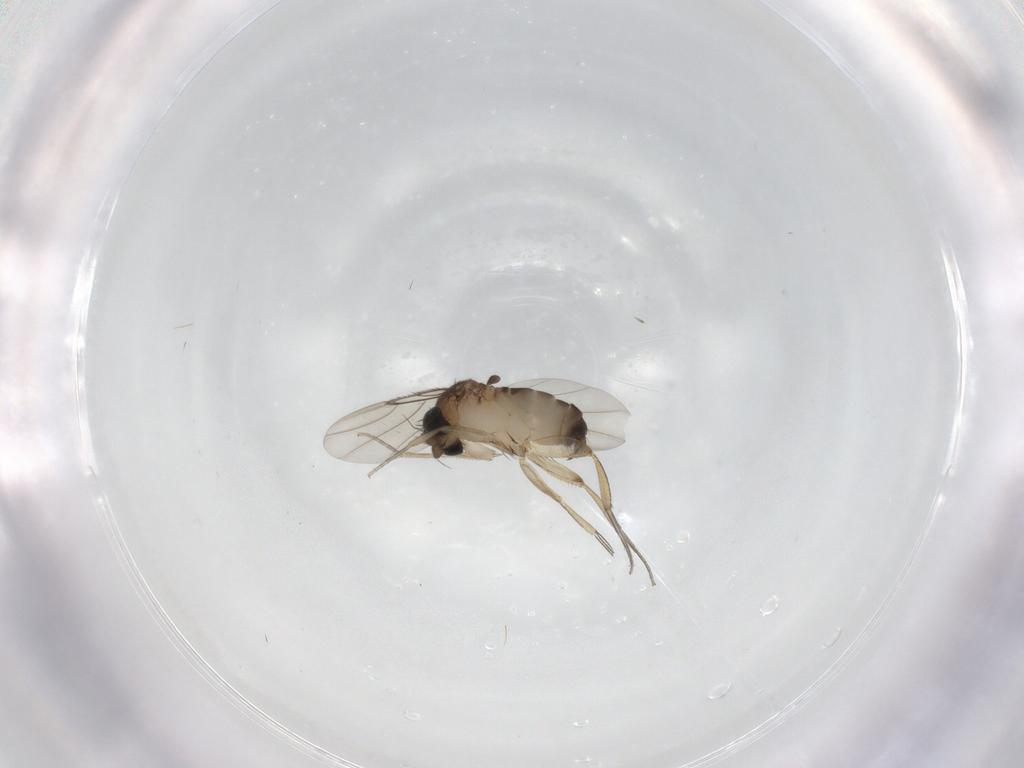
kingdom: Animalia
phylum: Arthropoda
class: Insecta
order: Diptera
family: Phoridae
